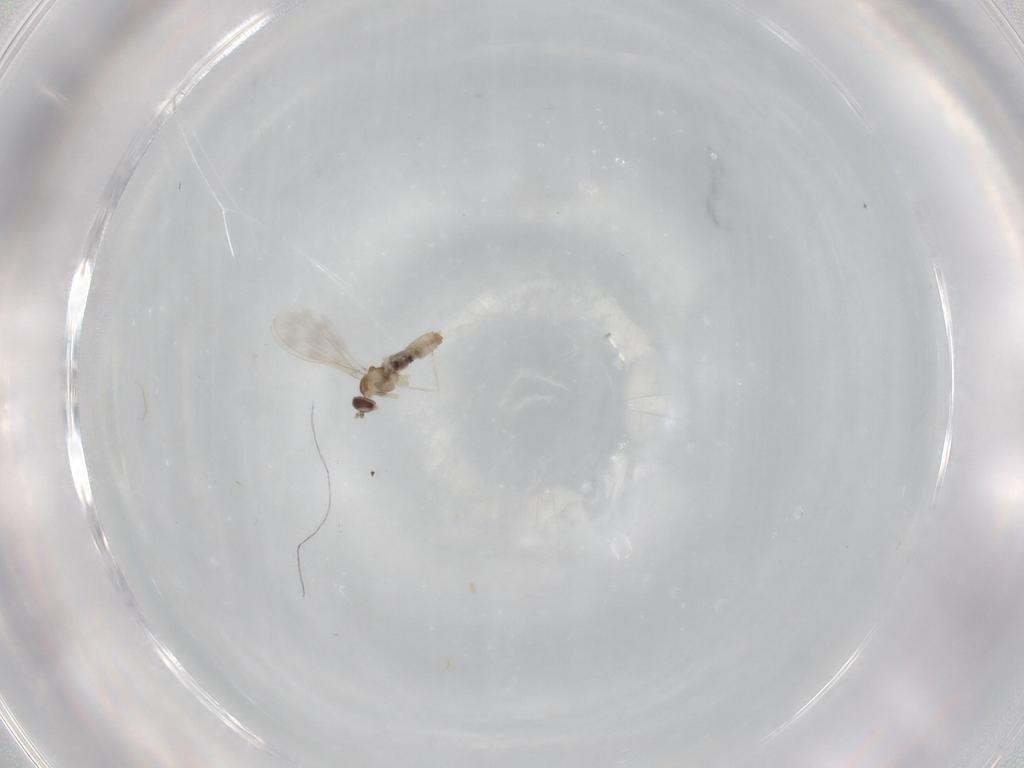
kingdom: Animalia
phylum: Arthropoda
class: Insecta
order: Diptera
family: Cecidomyiidae
